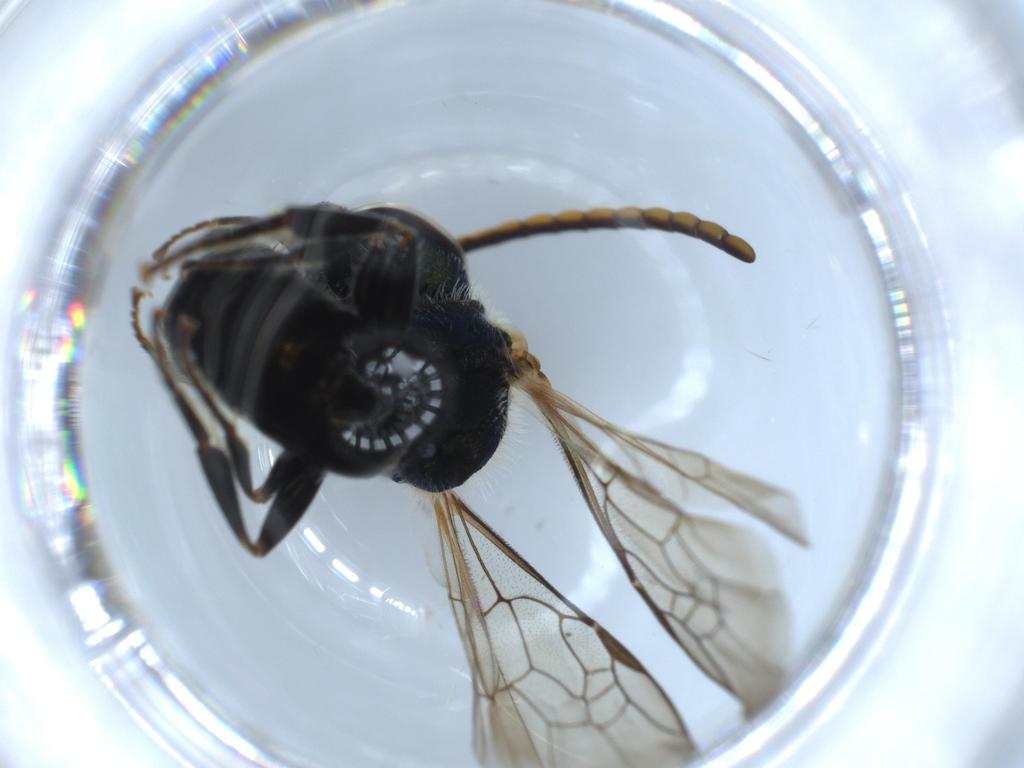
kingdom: Animalia
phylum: Arthropoda
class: Insecta
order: Hymenoptera
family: Apidae
